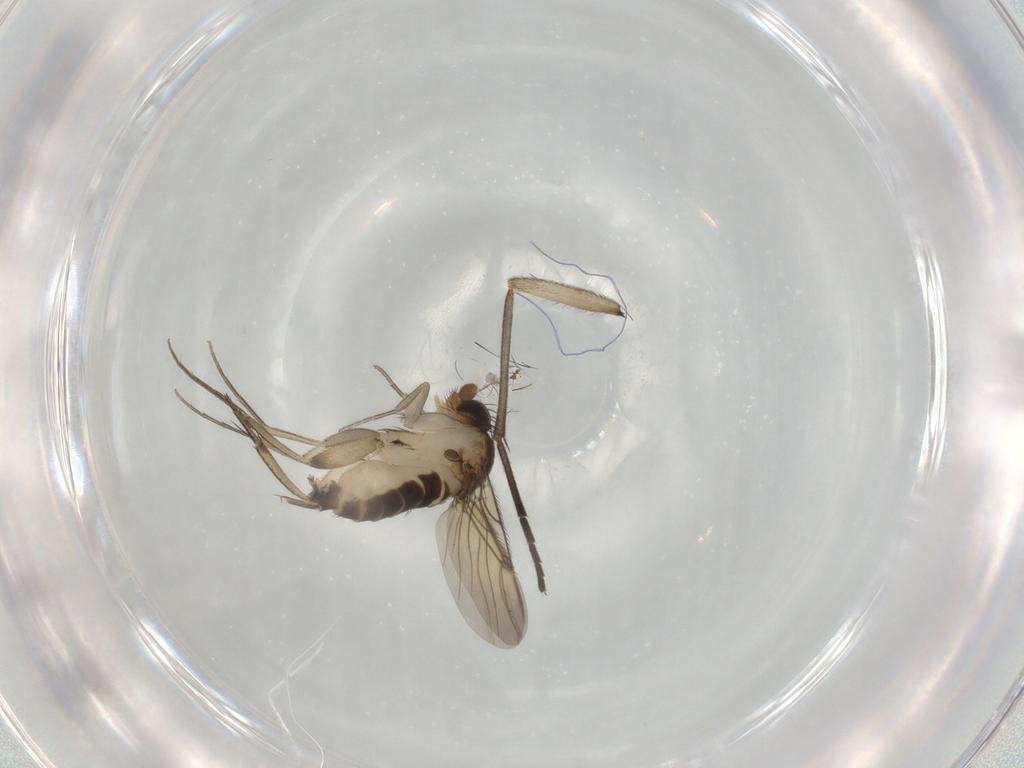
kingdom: Animalia
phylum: Arthropoda
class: Insecta
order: Diptera
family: Phoridae
